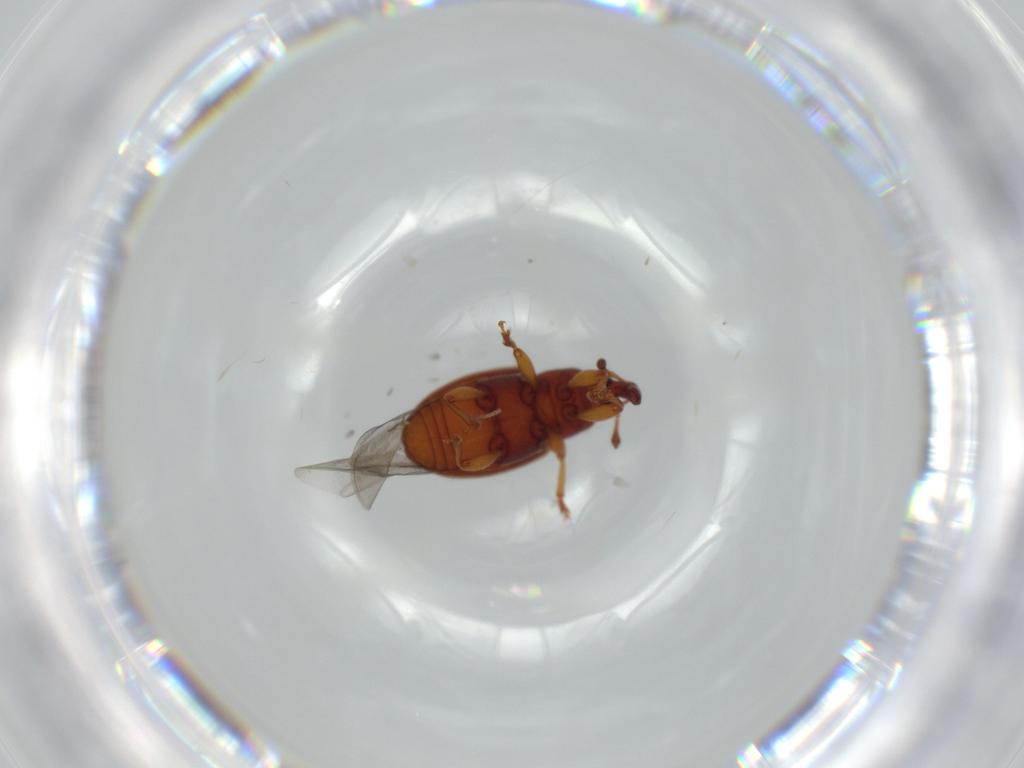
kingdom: Animalia
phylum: Arthropoda
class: Insecta
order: Coleoptera
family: Curculionidae
